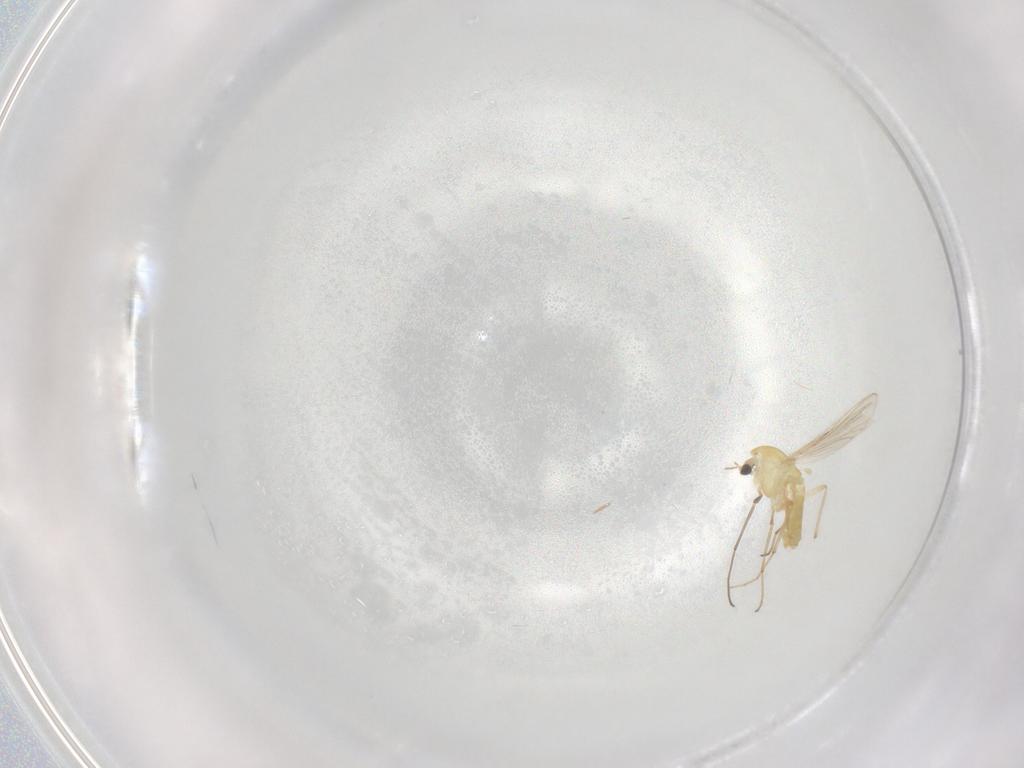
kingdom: Animalia
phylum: Arthropoda
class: Insecta
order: Diptera
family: Chironomidae
